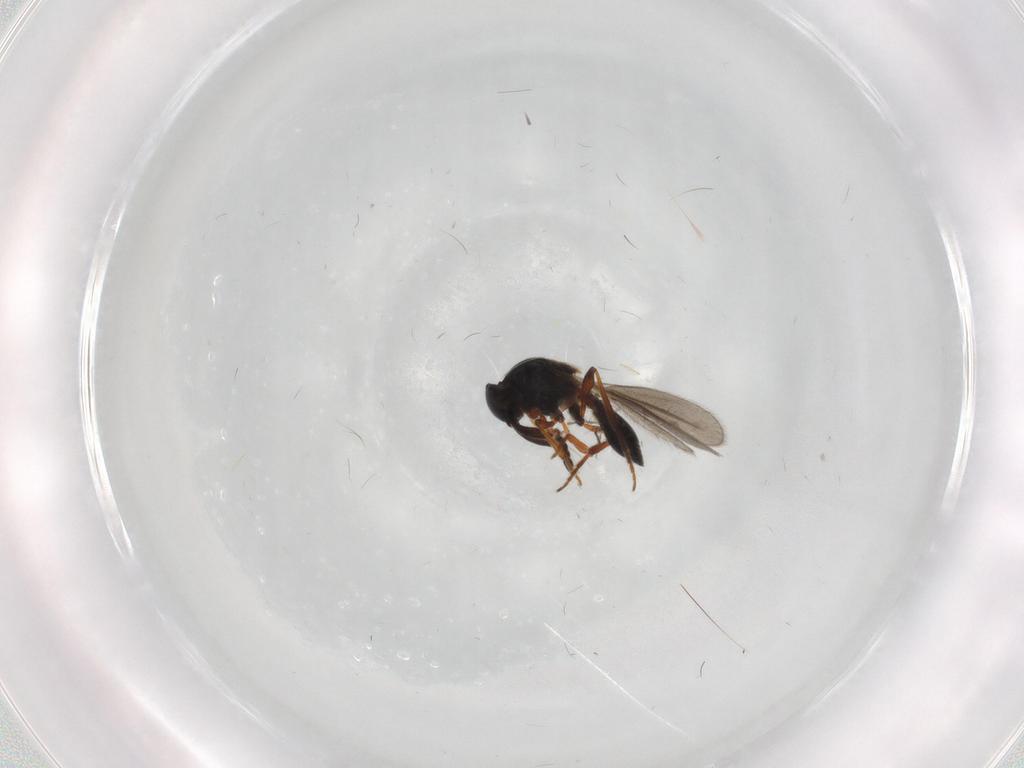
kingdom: Animalia
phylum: Arthropoda
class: Insecta
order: Hymenoptera
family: Platygastridae
